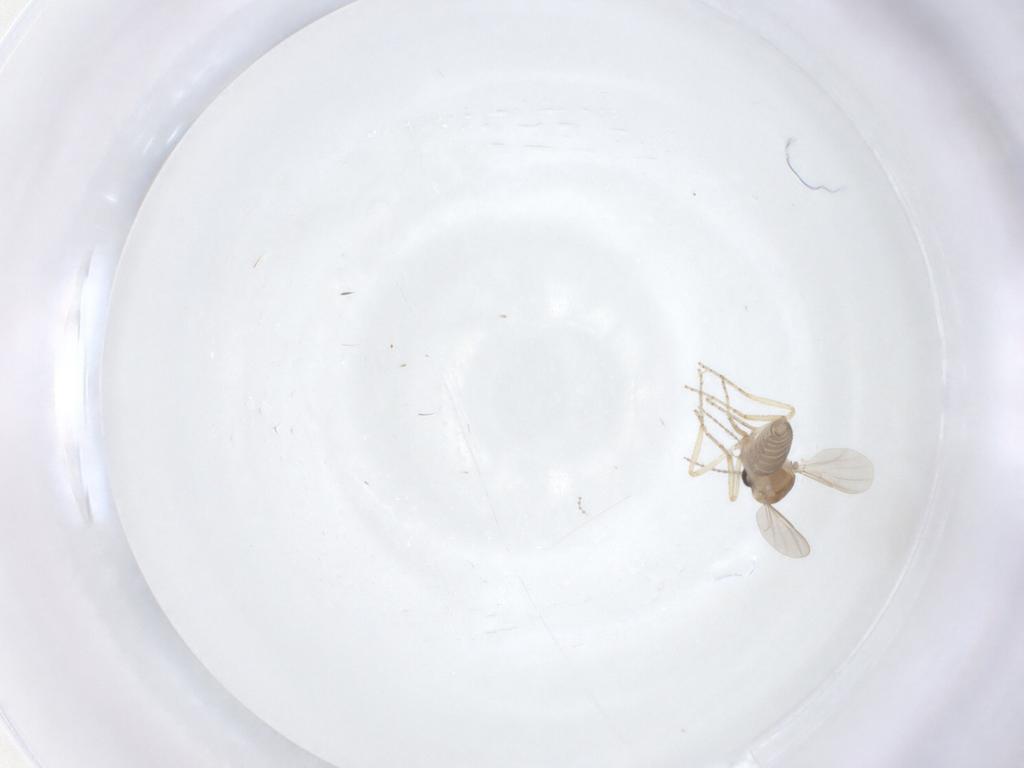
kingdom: Animalia
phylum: Arthropoda
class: Insecta
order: Diptera
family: Ceratopogonidae
